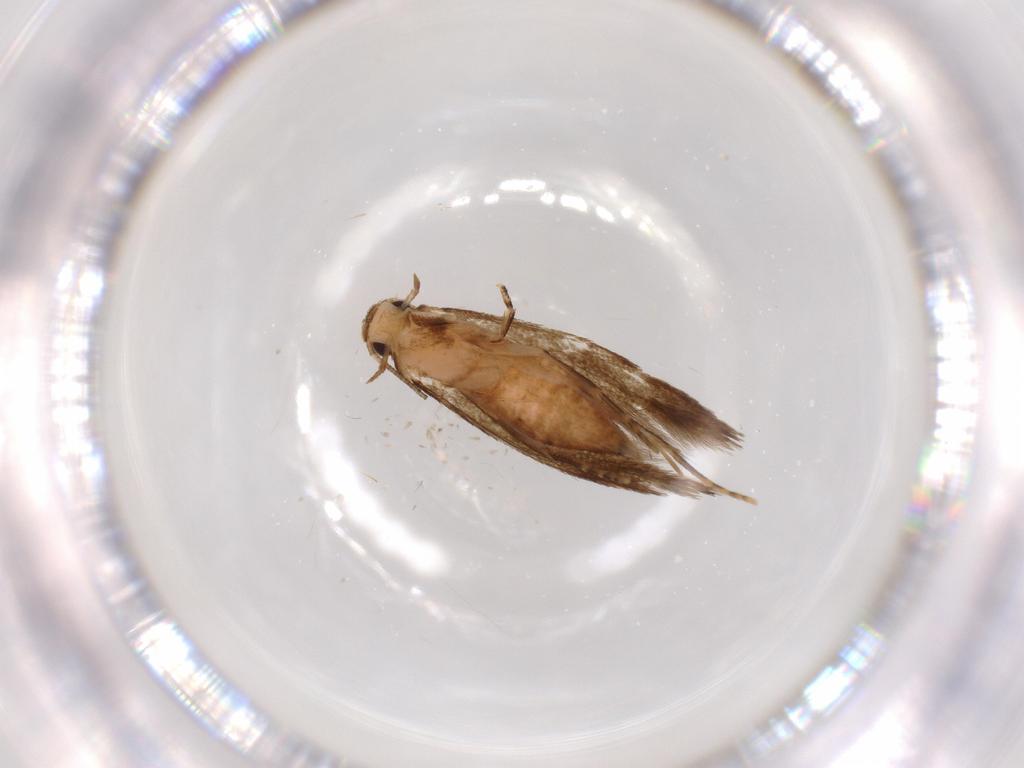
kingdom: Animalia
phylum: Arthropoda
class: Insecta
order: Lepidoptera
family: Tineidae
